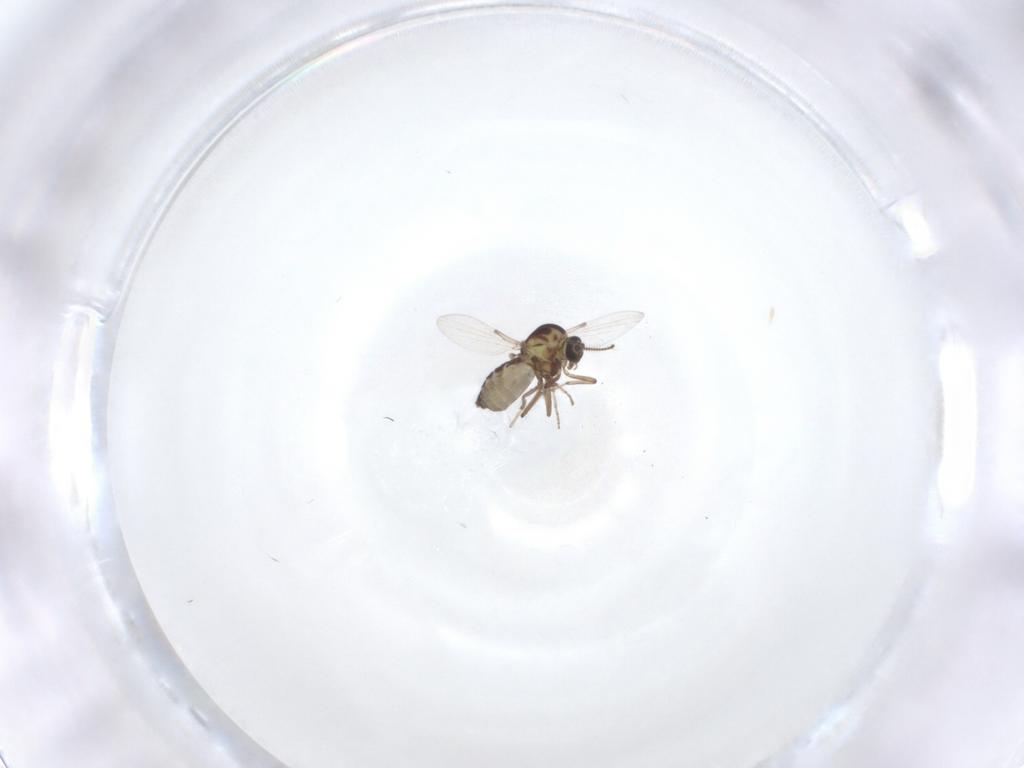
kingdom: Animalia
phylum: Arthropoda
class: Insecta
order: Diptera
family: Ceratopogonidae
